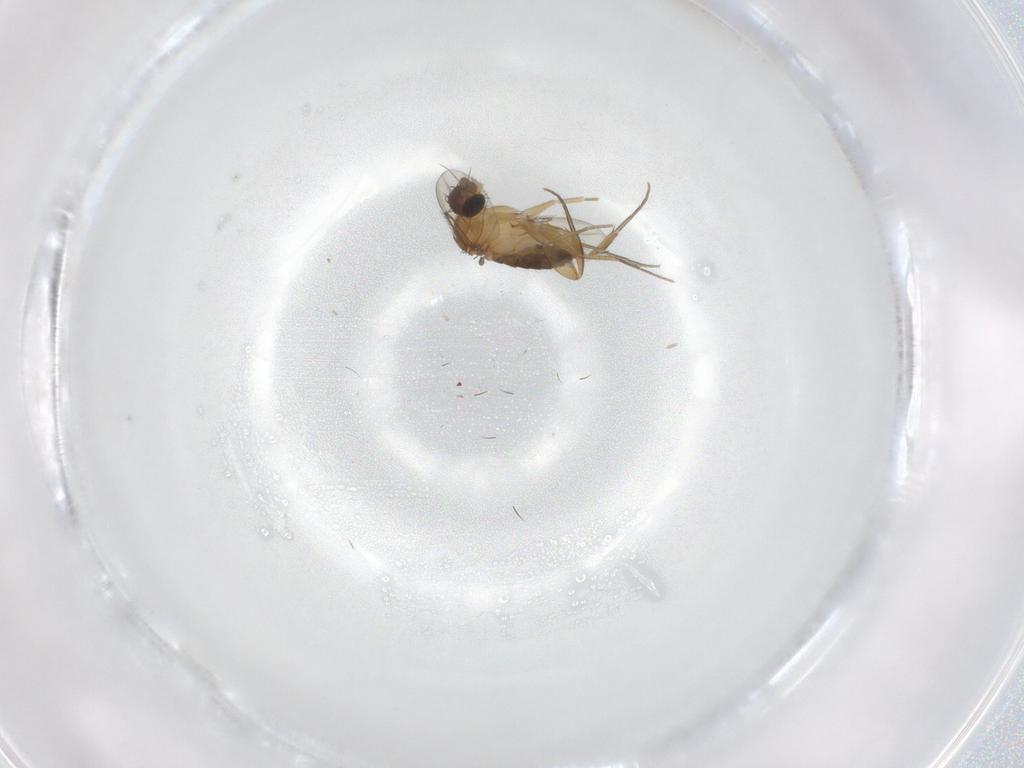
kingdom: Animalia
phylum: Arthropoda
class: Insecta
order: Diptera
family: Phoridae
